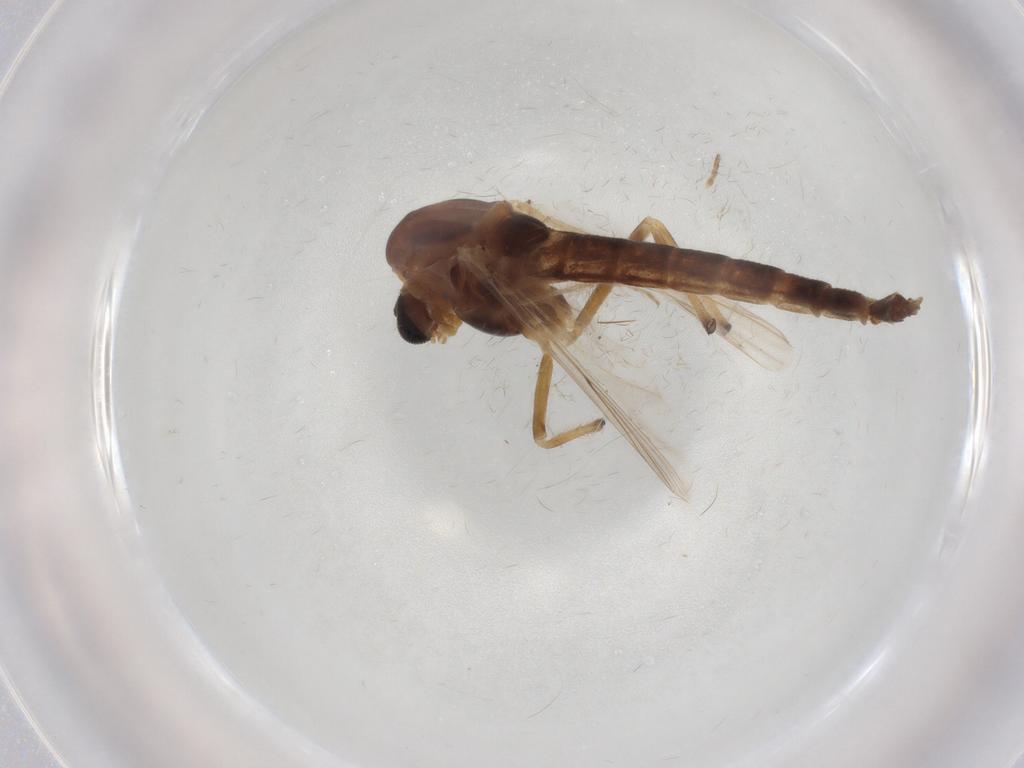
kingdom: Animalia
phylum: Arthropoda
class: Insecta
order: Diptera
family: Chironomidae
